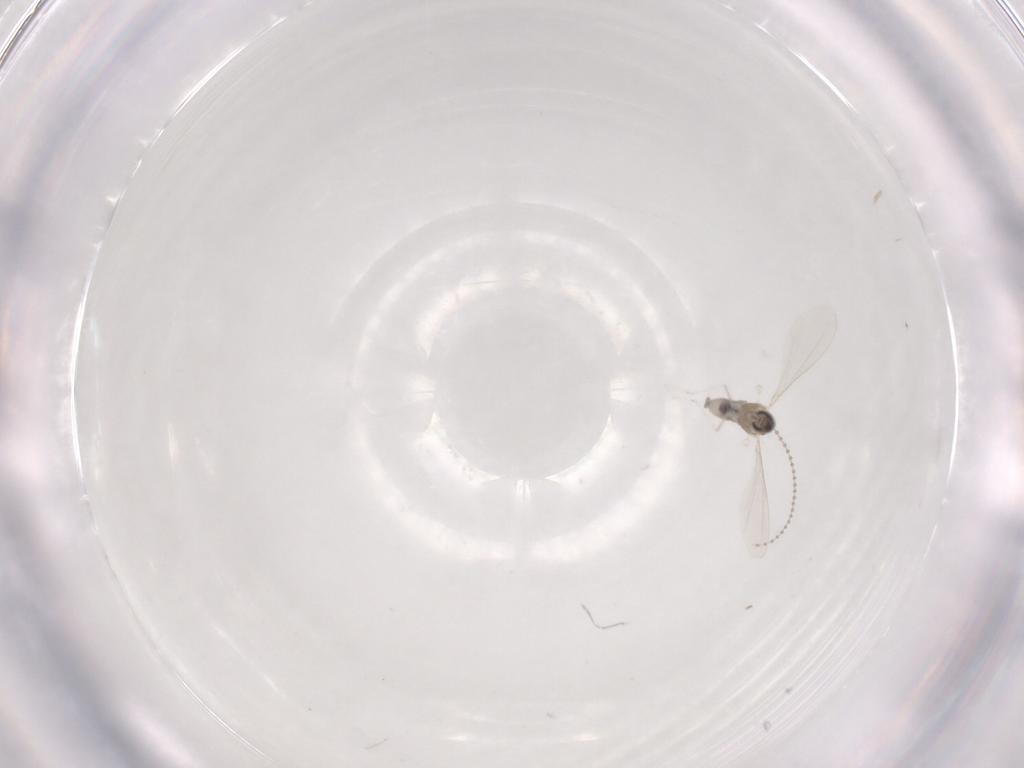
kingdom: Animalia
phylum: Arthropoda
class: Insecta
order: Diptera
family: Cecidomyiidae
